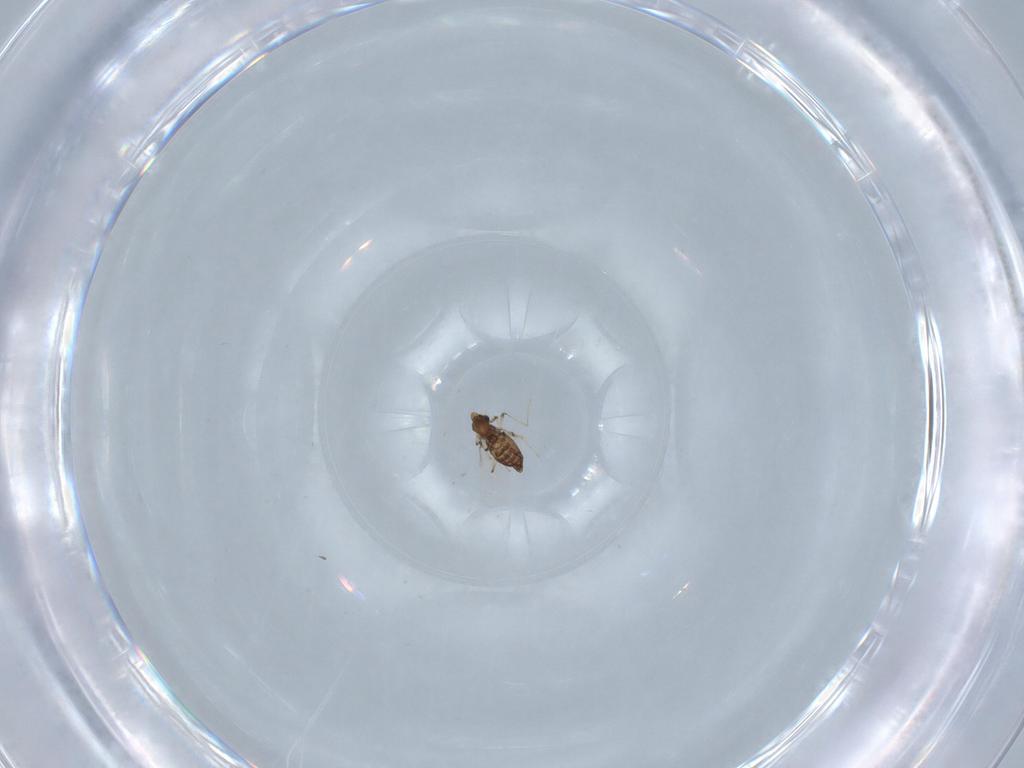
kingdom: Animalia
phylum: Arthropoda
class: Insecta
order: Diptera
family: Chironomidae
